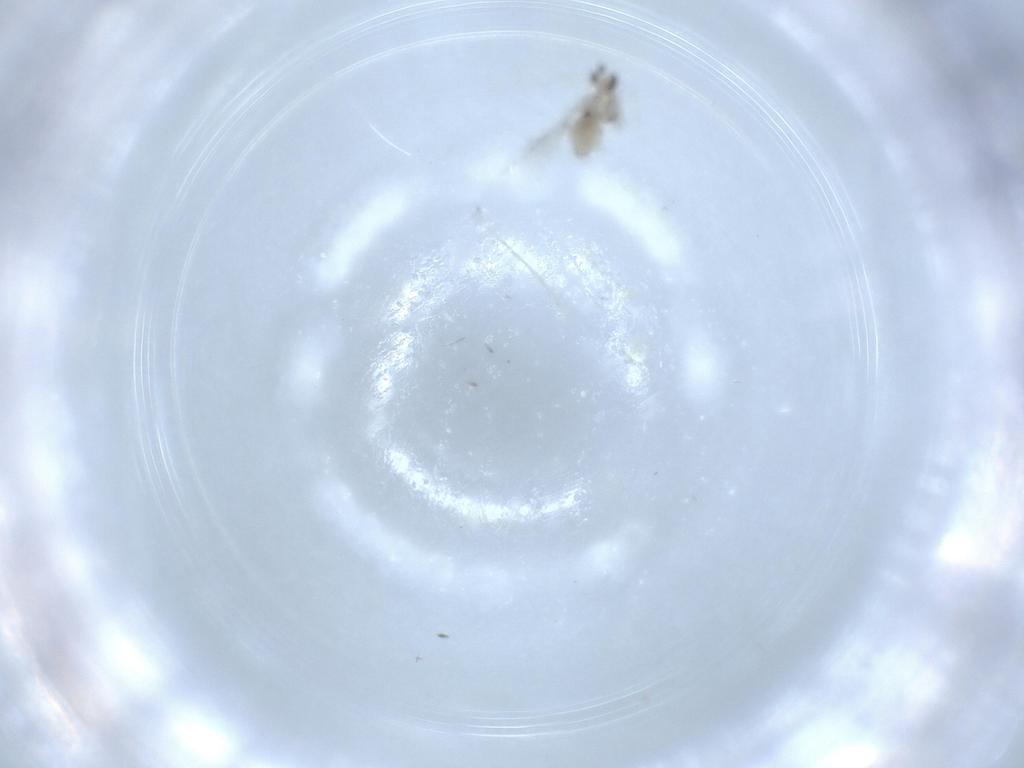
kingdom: Animalia
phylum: Arthropoda
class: Insecta
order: Diptera
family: Cecidomyiidae
